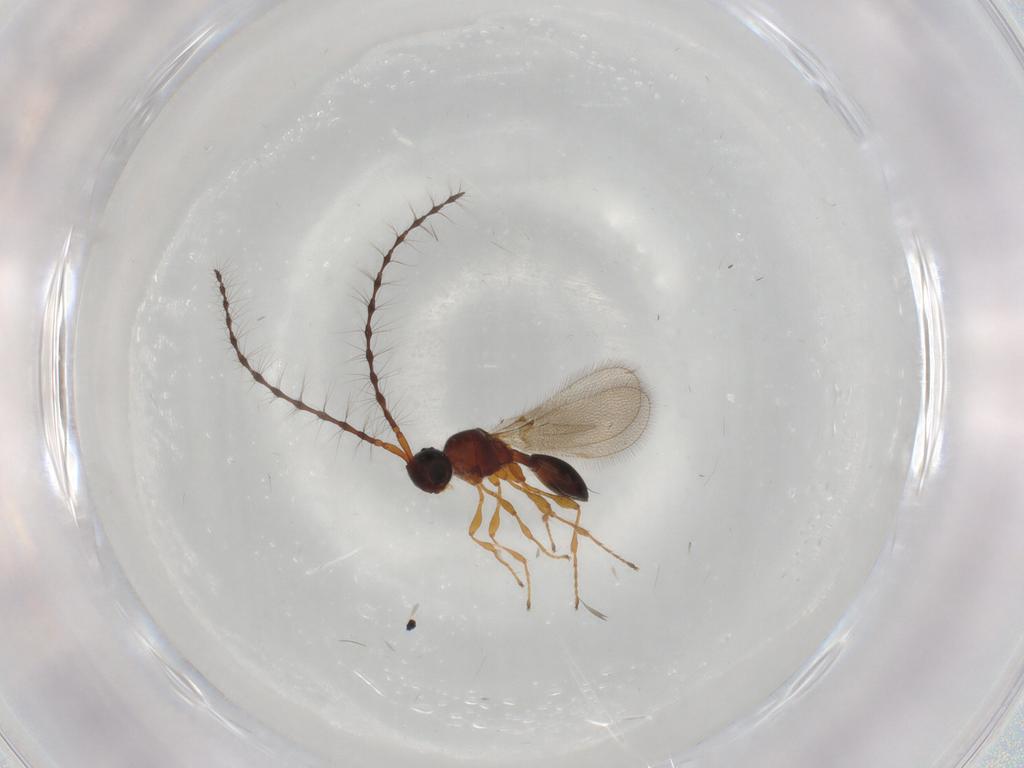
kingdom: Animalia
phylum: Arthropoda
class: Insecta
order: Hymenoptera
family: Diapriidae
